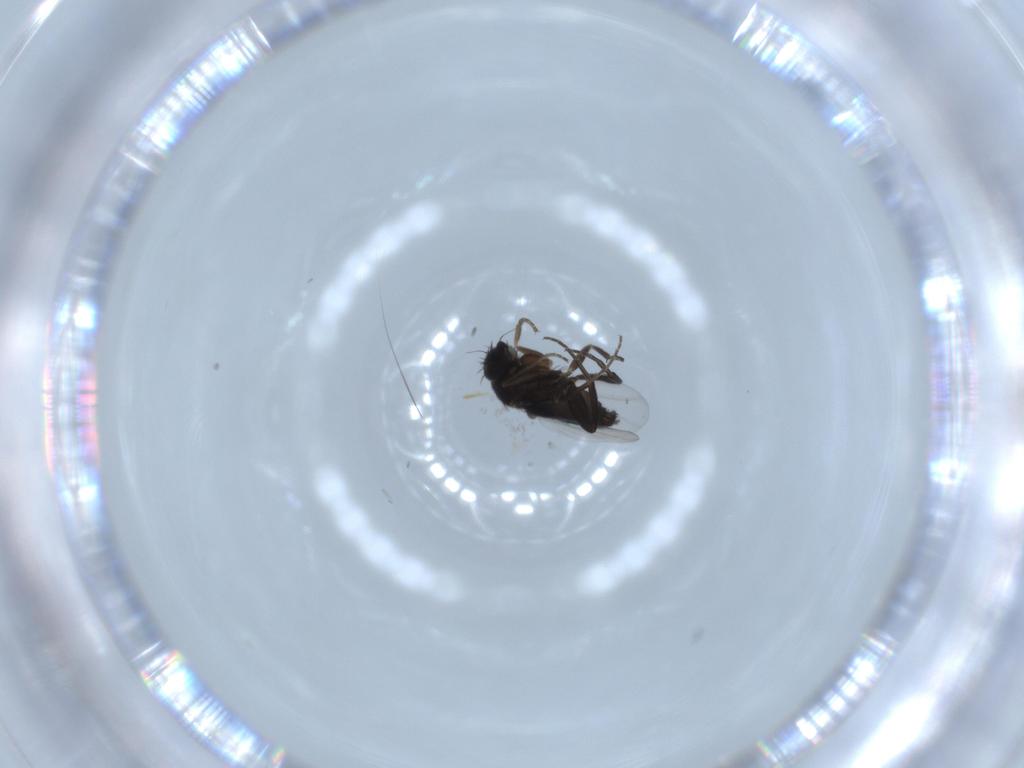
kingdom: Animalia
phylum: Arthropoda
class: Insecta
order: Diptera
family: Phoridae
